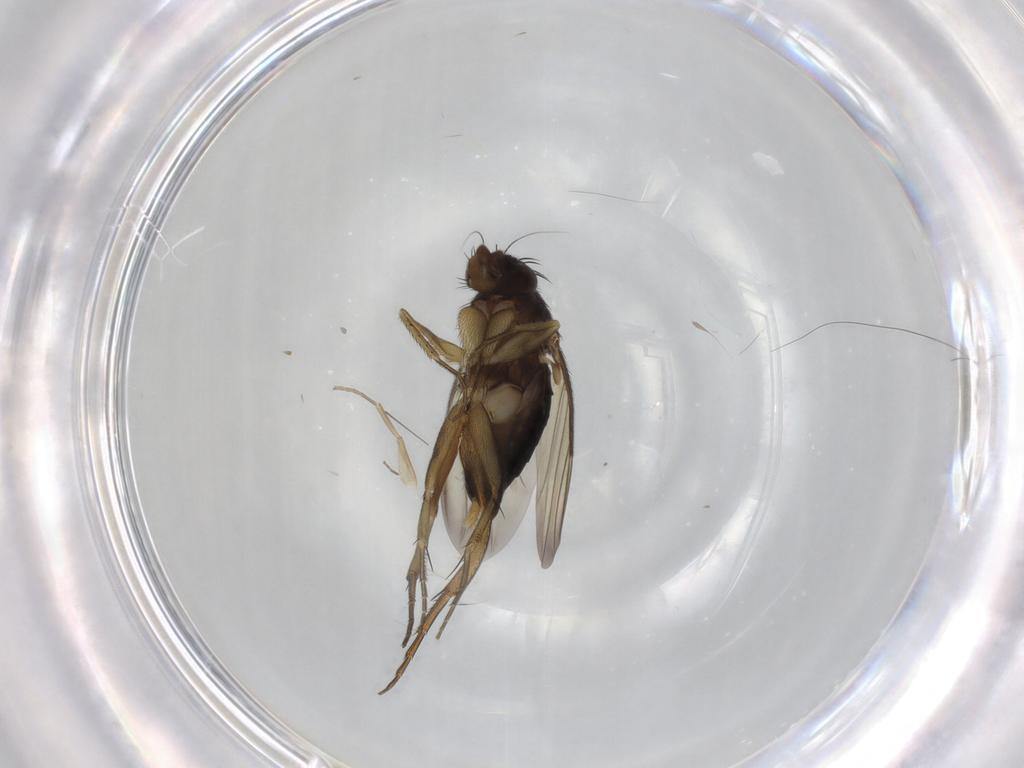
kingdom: Animalia
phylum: Arthropoda
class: Insecta
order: Diptera
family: Phoridae
